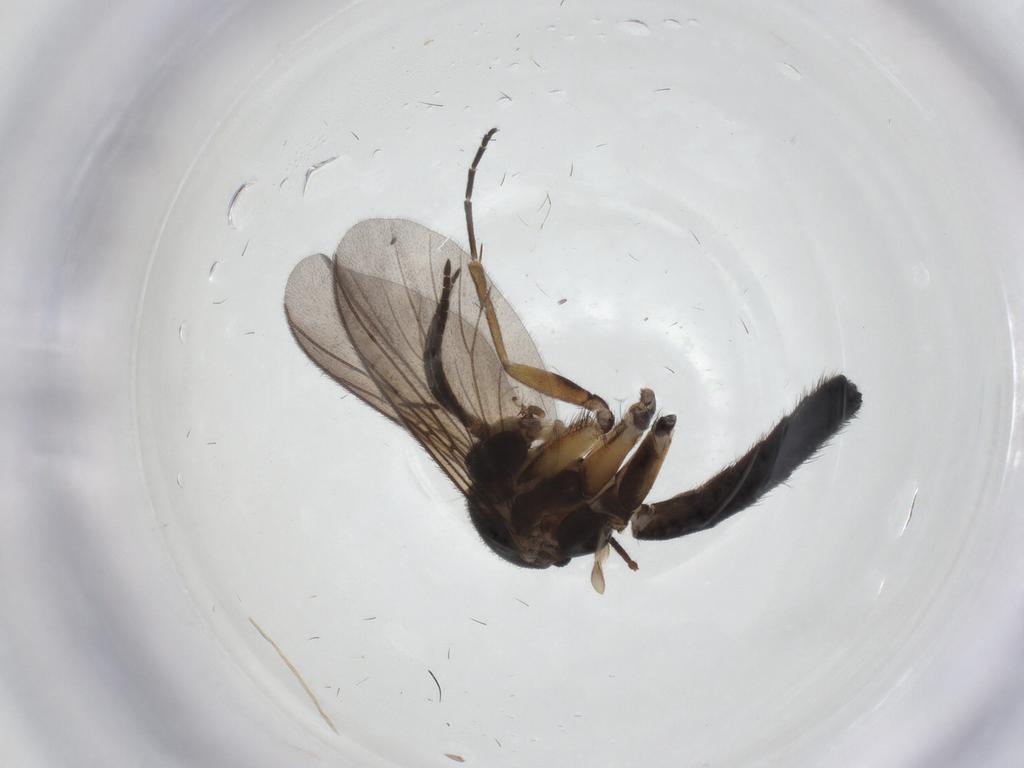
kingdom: Animalia
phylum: Arthropoda
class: Insecta
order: Diptera
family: Mycetophilidae
